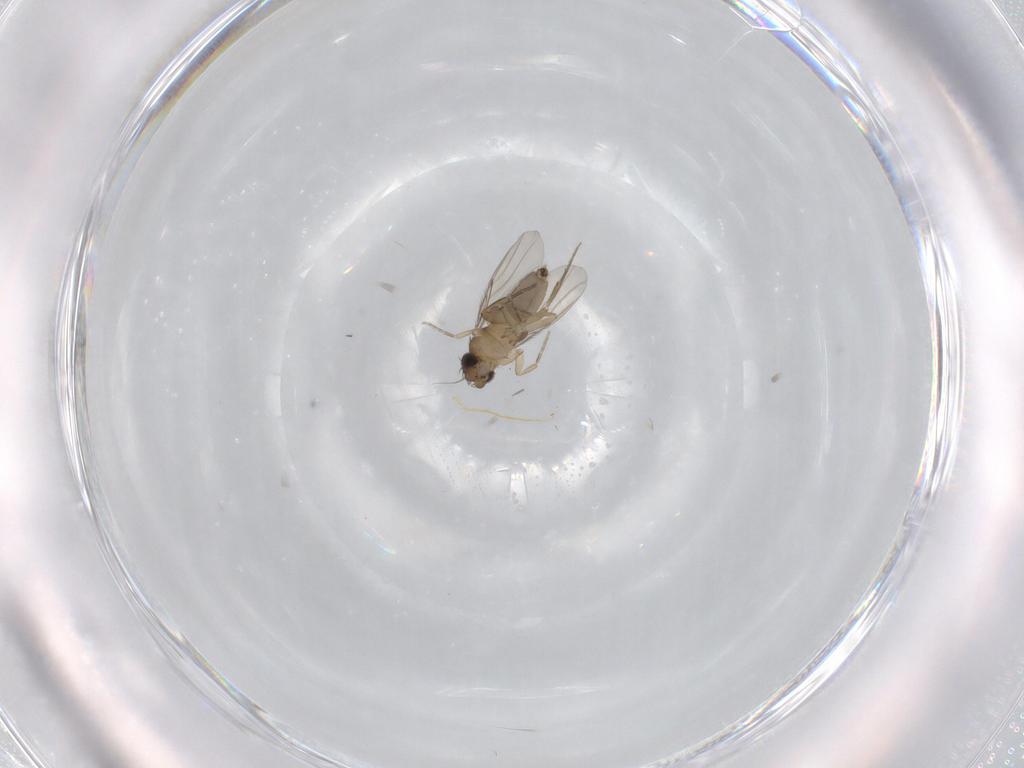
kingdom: Animalia
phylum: Arthropoda
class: Insecta
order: Diptera
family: Phoridae
